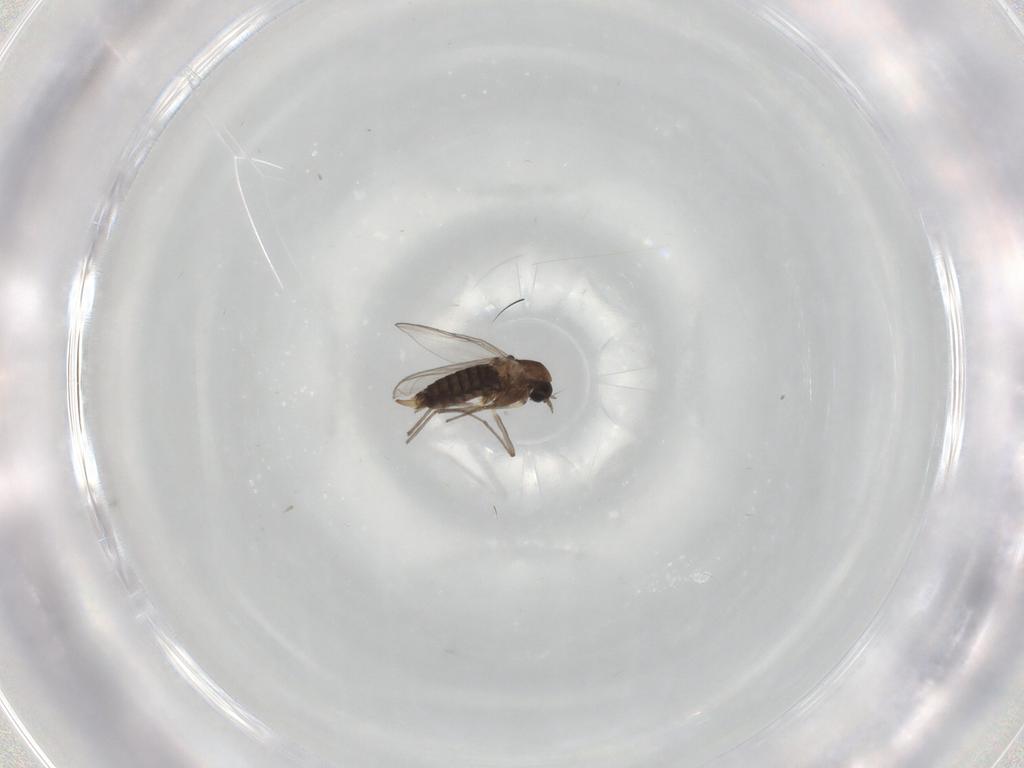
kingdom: Animalia
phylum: Arthropoda
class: Insecta
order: Diptera
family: Chironomidae
